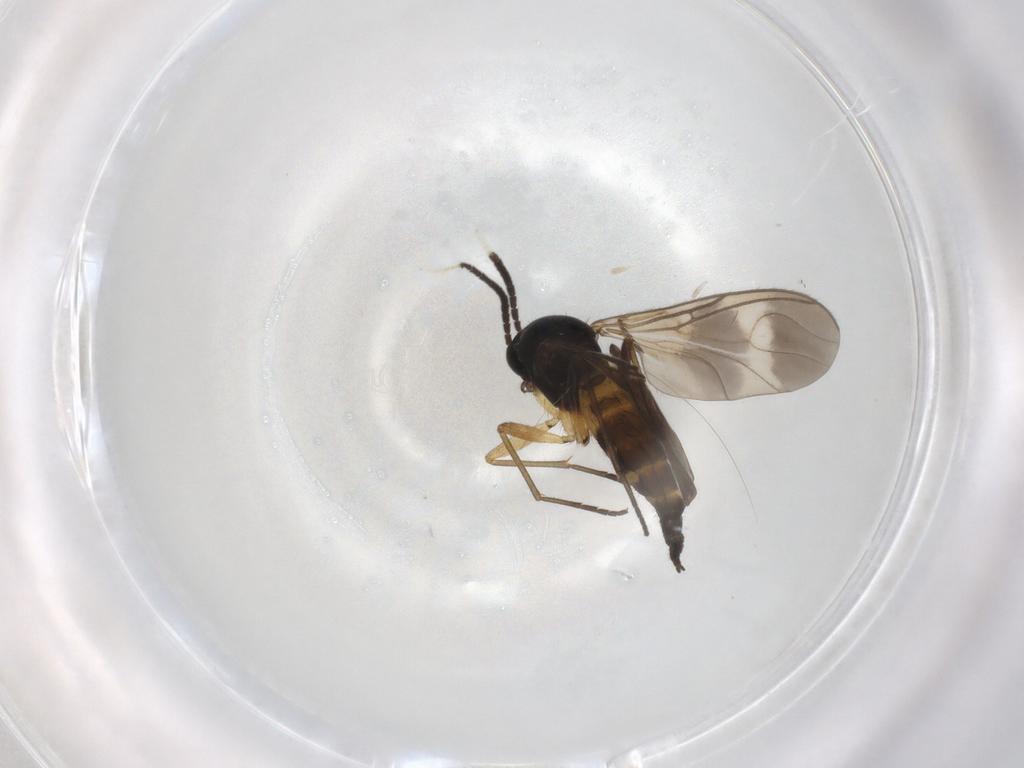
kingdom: Animalia
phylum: Arthropoda
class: Insecta
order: Diptera
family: Sciaridae
